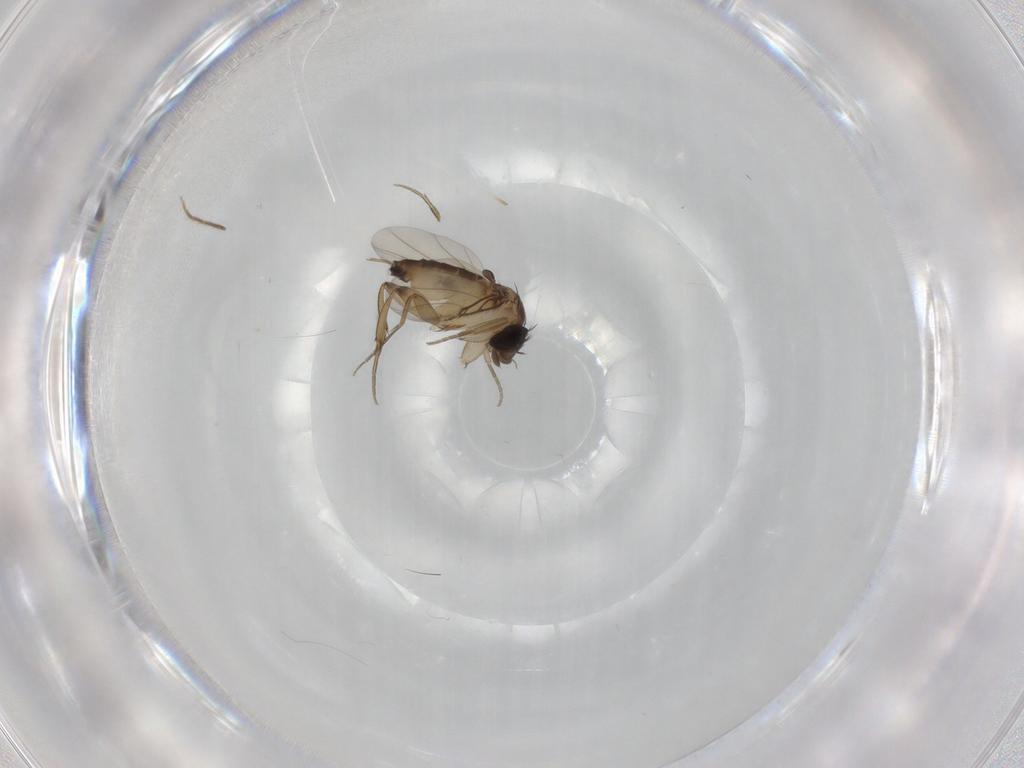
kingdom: Animalia
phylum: Arthropoda
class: Insecta
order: Diptera
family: Phoridae
